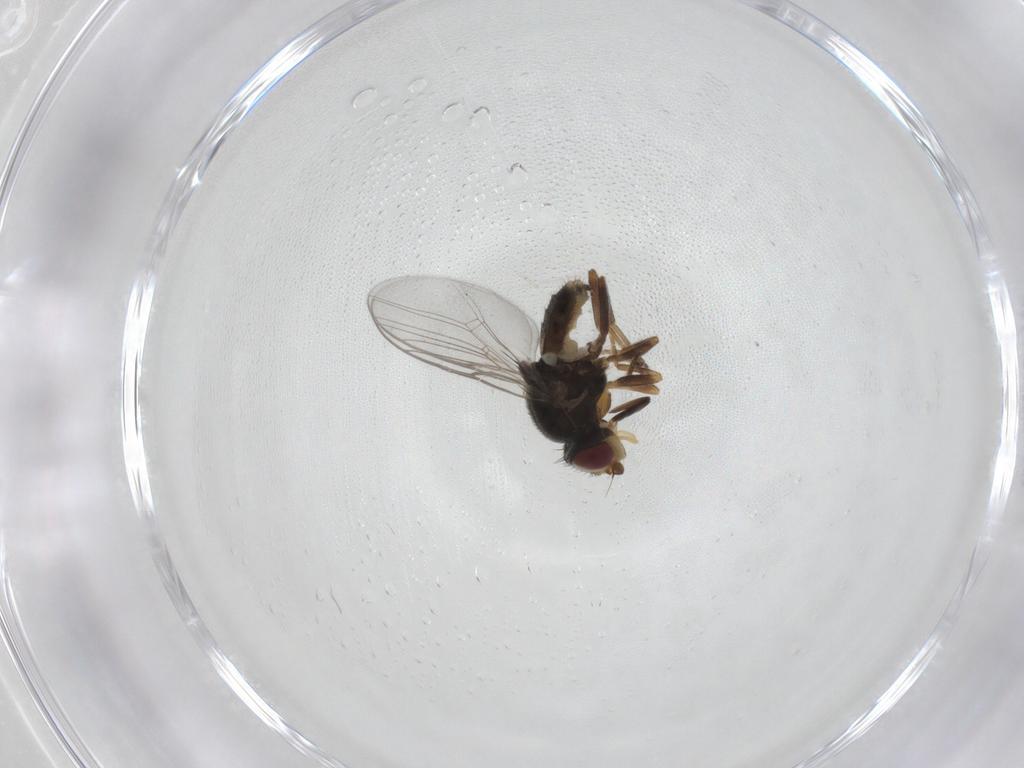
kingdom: Animalia
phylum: Arthropoda
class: Insecta
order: Diptera
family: Chloropidae
